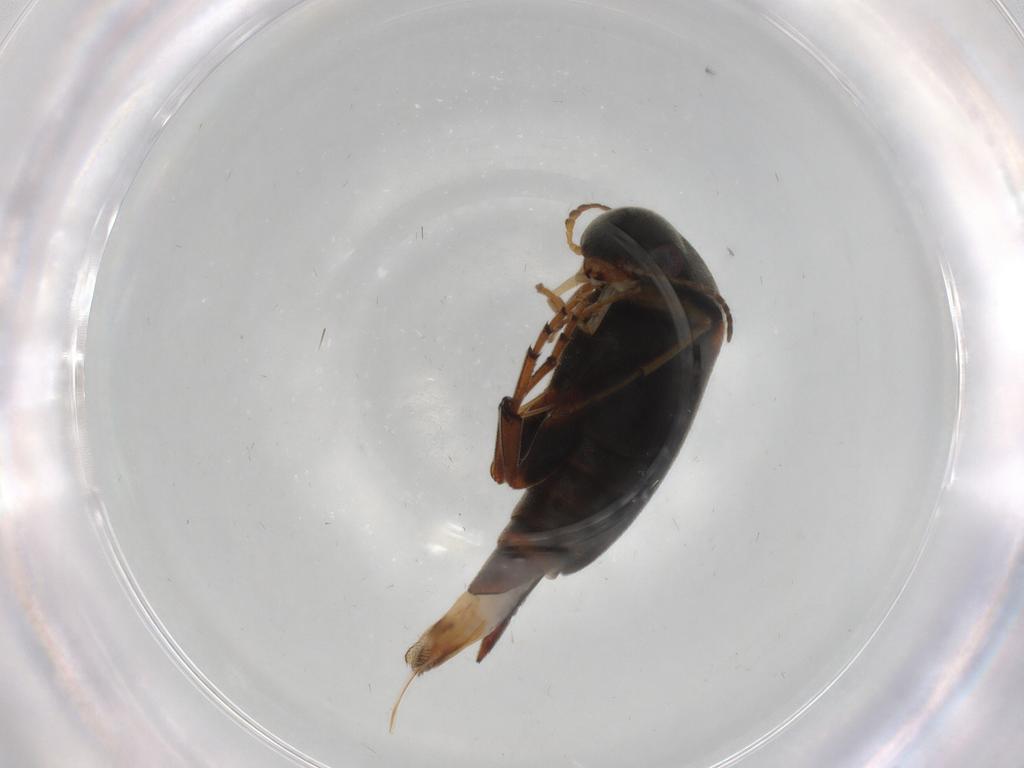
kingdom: Animalia
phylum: Arthropoda
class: Insecta
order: Coleoptera
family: Mordellidae
